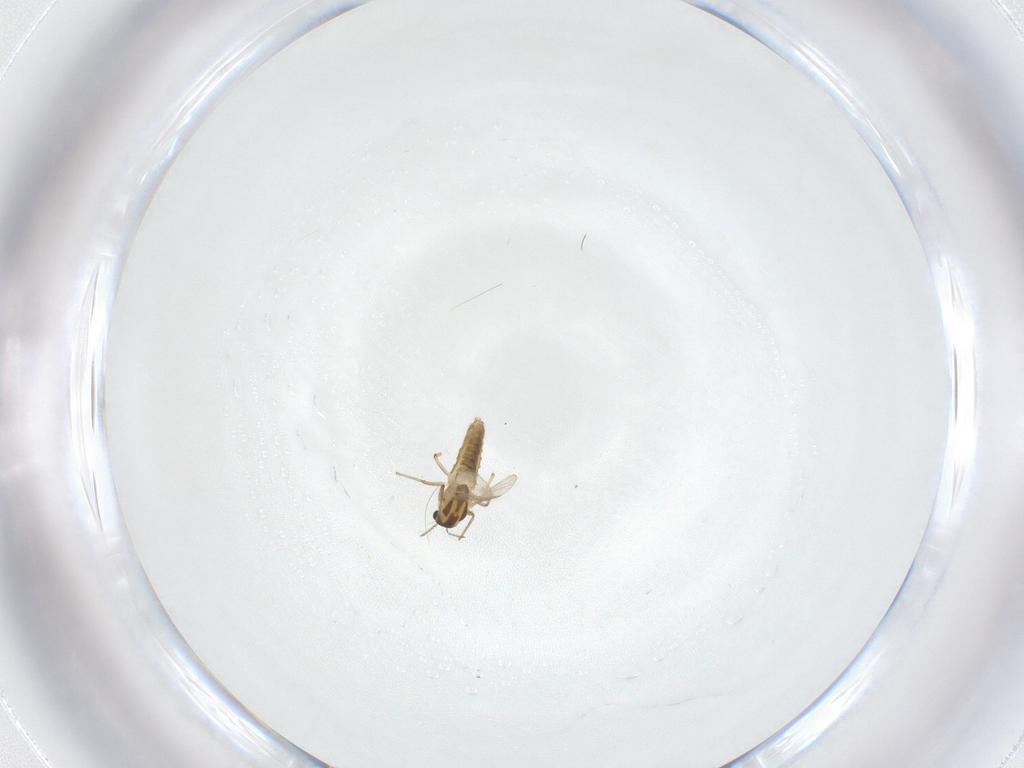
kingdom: Animalia
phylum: Arthropoda
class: Insecta
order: Diptera
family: Chironomidae
